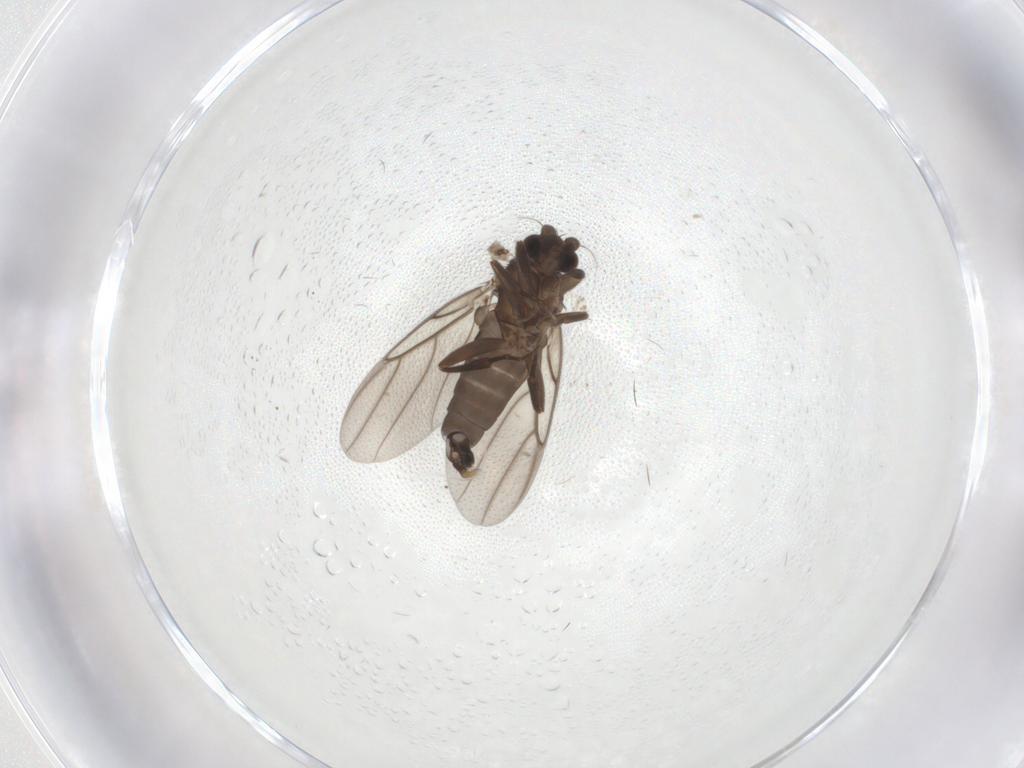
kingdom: Animalia
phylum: Arthropoda
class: Insecta
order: Diptera
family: Phoridae
